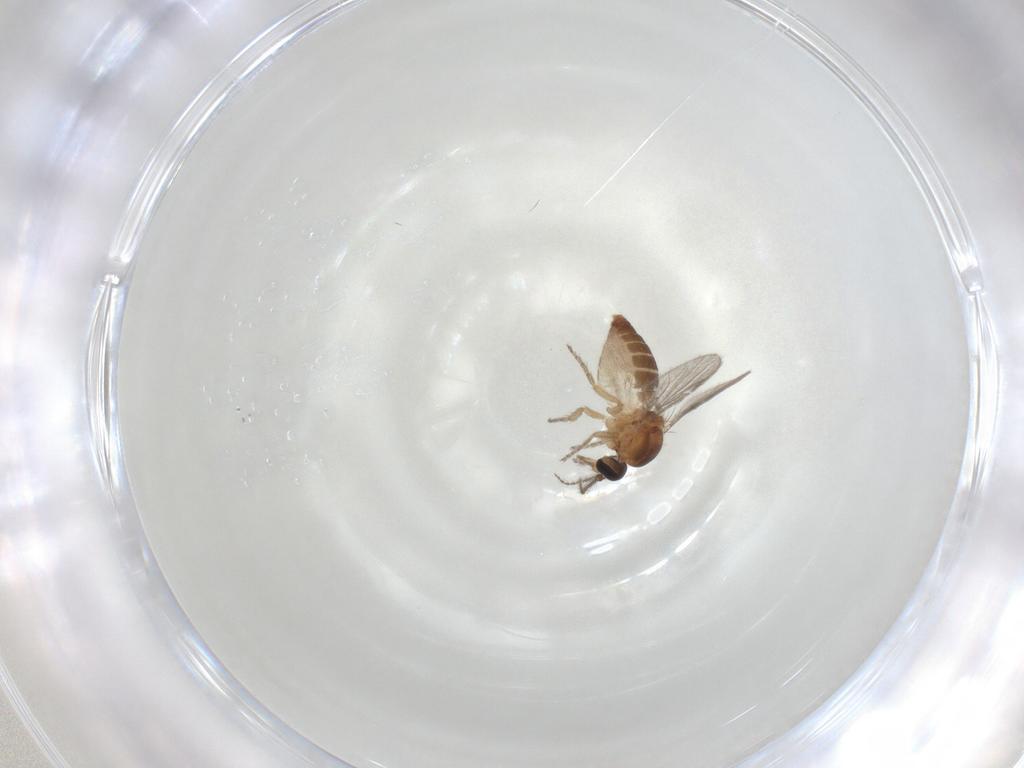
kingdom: Animalia
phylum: Arthropoda
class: Insecta
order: Diptera
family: Ceratopogonidae
